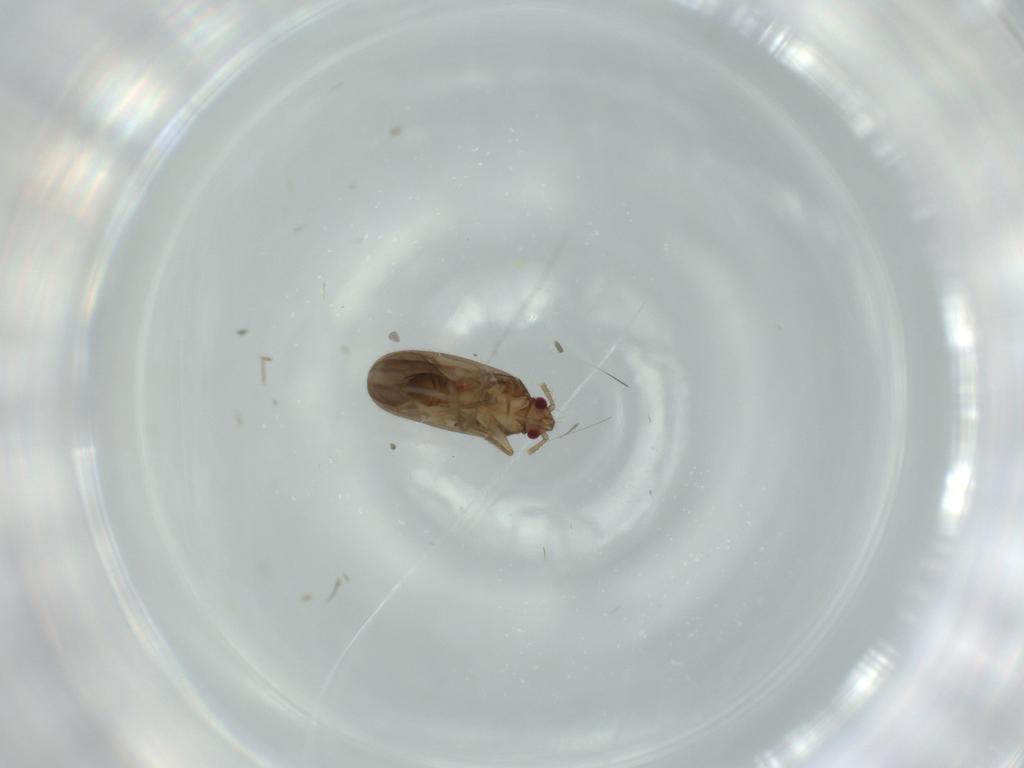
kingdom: Animalia
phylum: Arthropoda
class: Insecta
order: Hemiptera
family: Ceratocombidae
